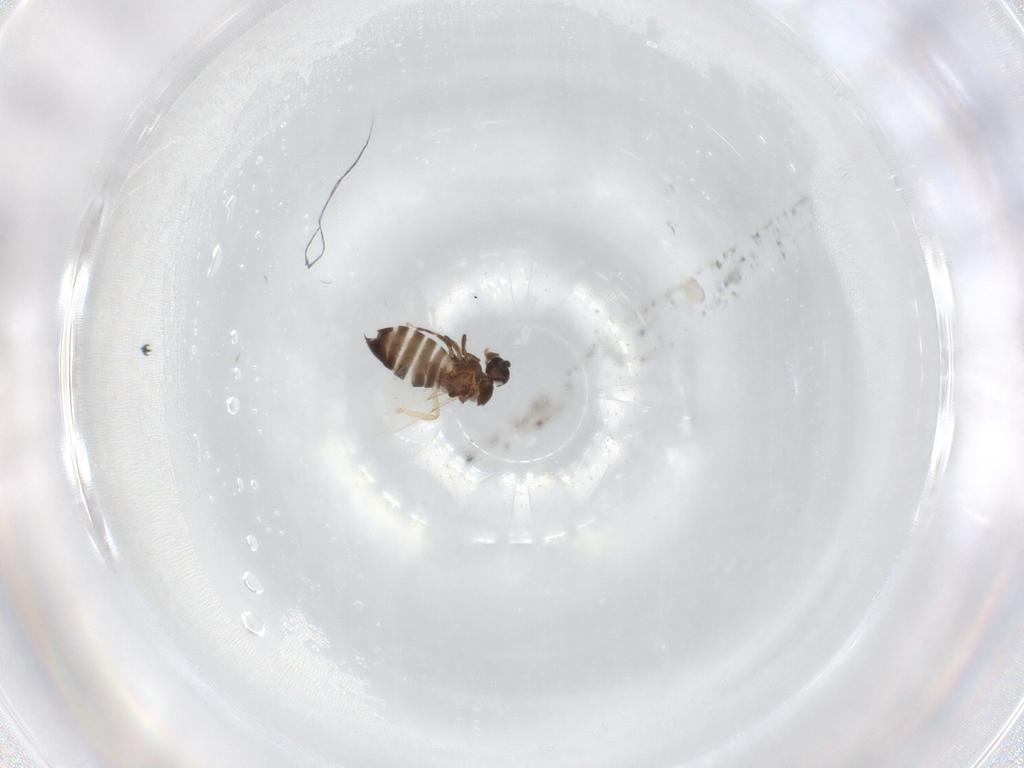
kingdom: Animalia
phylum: Arthropoda
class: Insecta
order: Diptera
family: Scatopsidae
